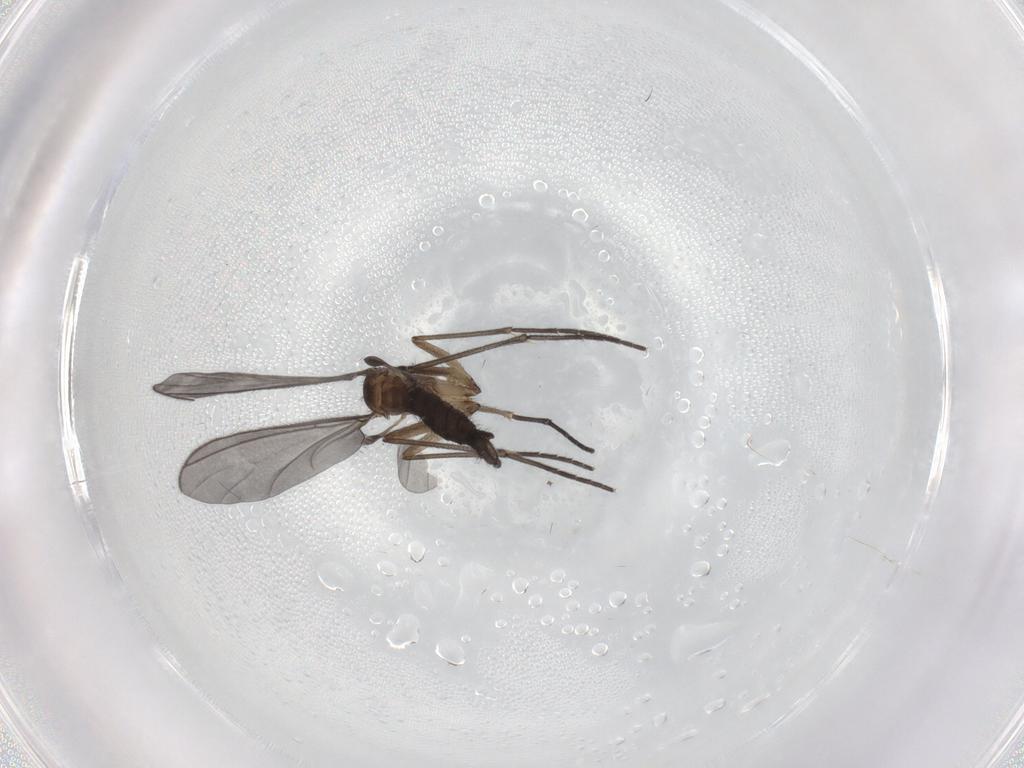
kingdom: Animalia
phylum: Arthropoda
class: Insecta
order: Diptera
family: Sciaridae
